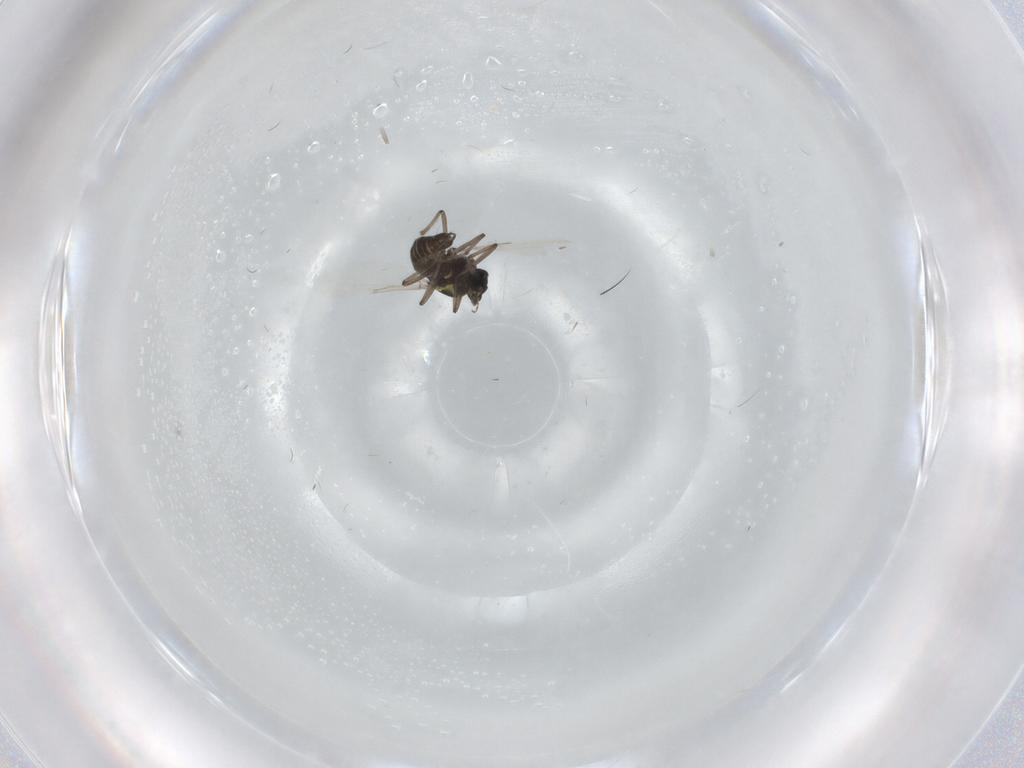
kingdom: Animalia
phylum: Arthropoda
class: Insecta
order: Diptera
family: Ceratopogonidae
